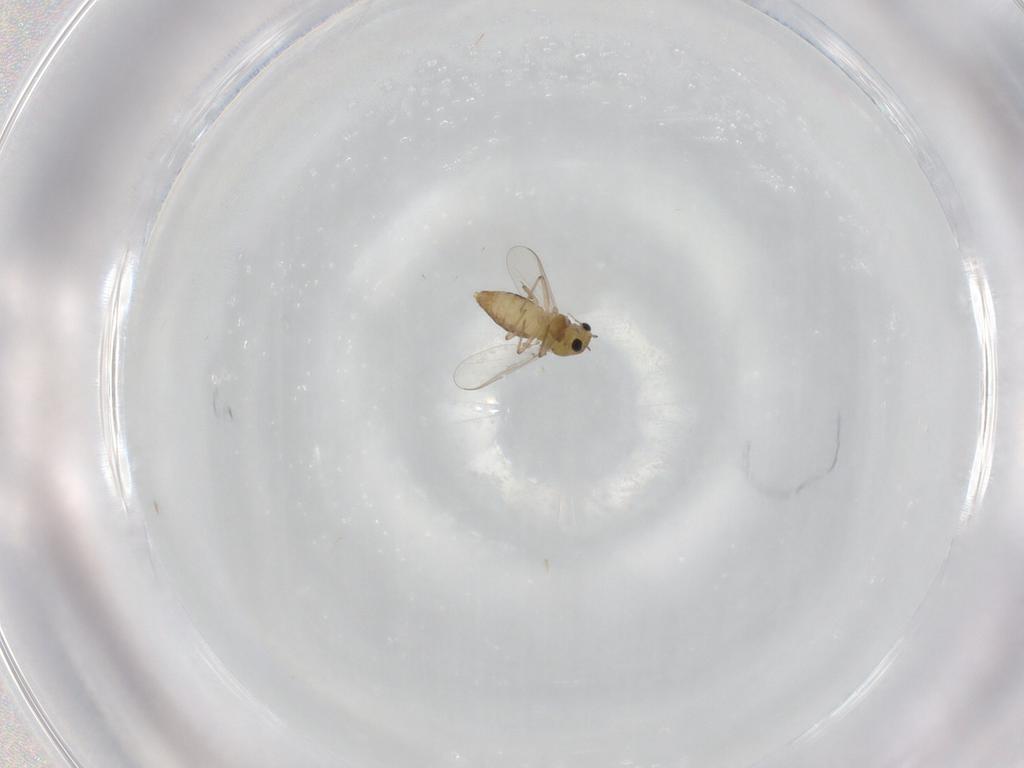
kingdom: Animalia
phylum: Arthropoda
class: Insecta
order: Diptera
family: Chironomidae
